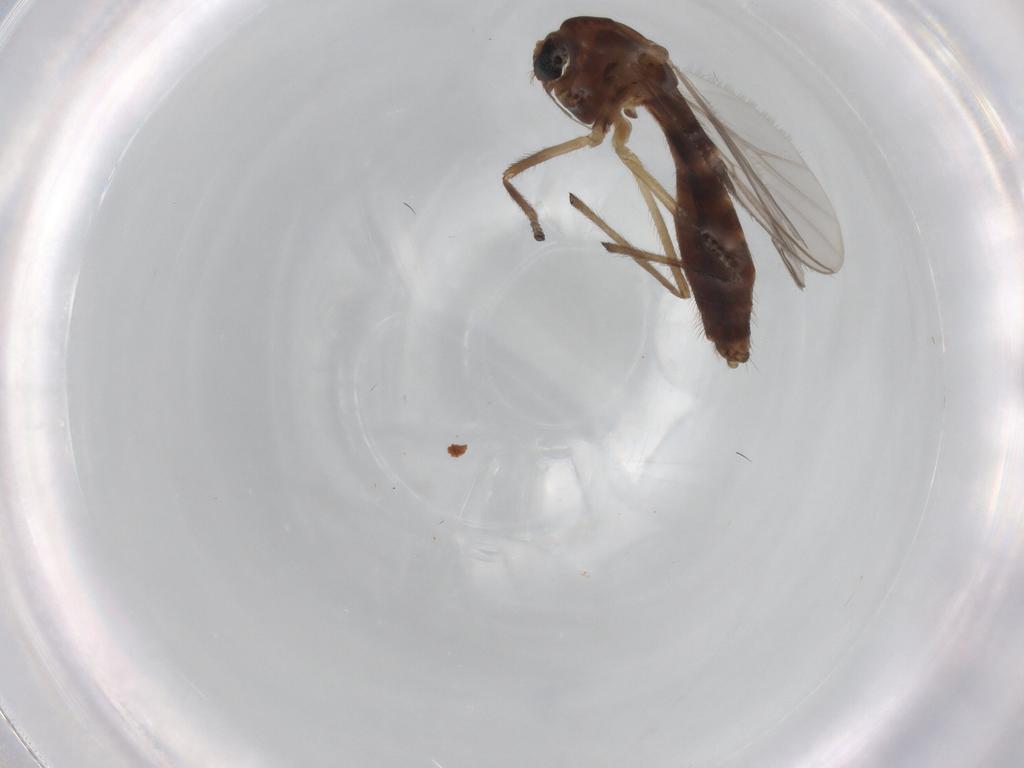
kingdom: Animalia
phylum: Arthropoda
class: Insecta
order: Diptera
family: Chironomidae
